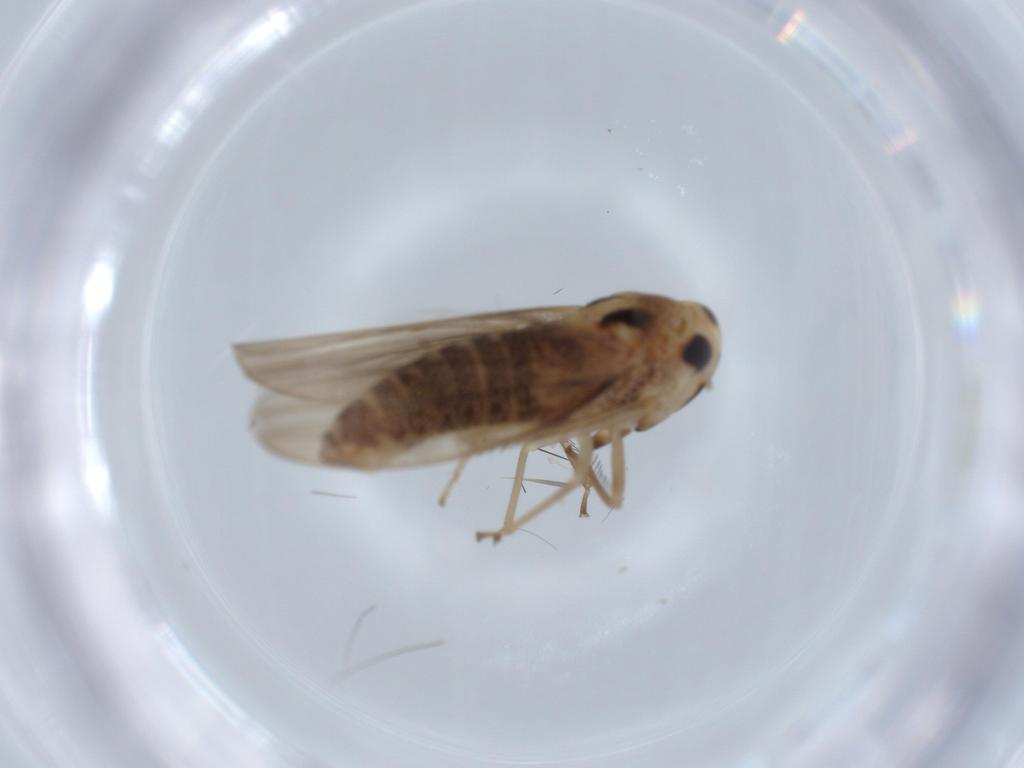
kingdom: Animalia
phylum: Arthropoda
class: Insecta
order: Hemiptera
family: Cicadellidae
